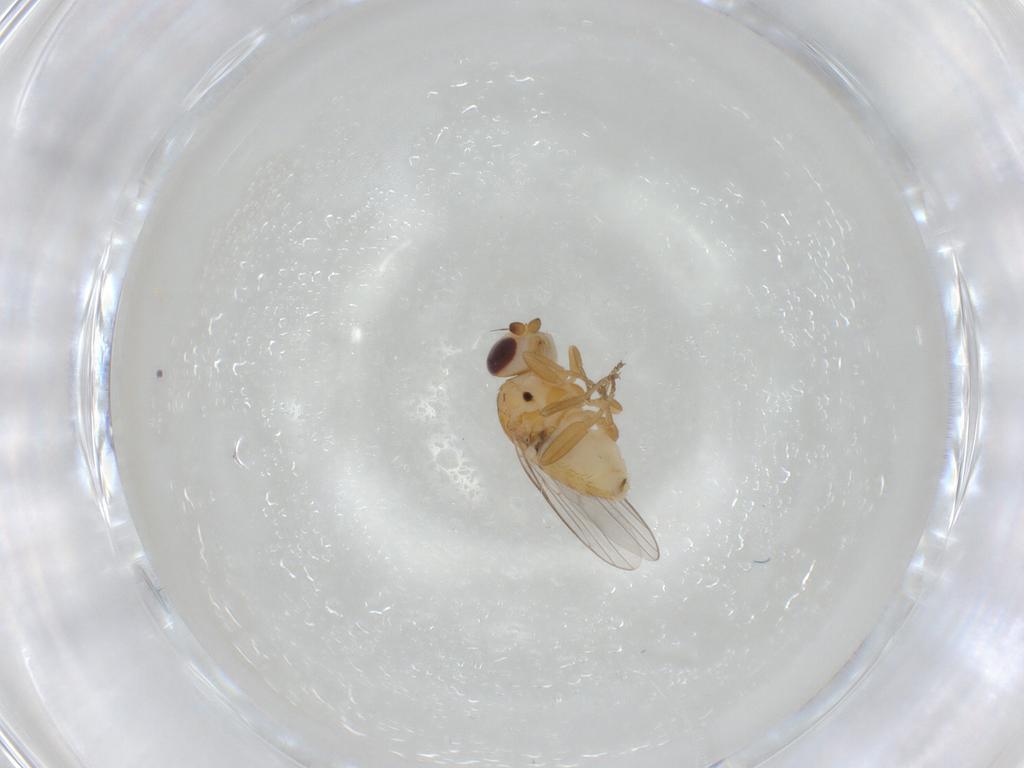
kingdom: Animalia
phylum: Arthropoda
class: Insecta
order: Diptera
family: Chloropidae
